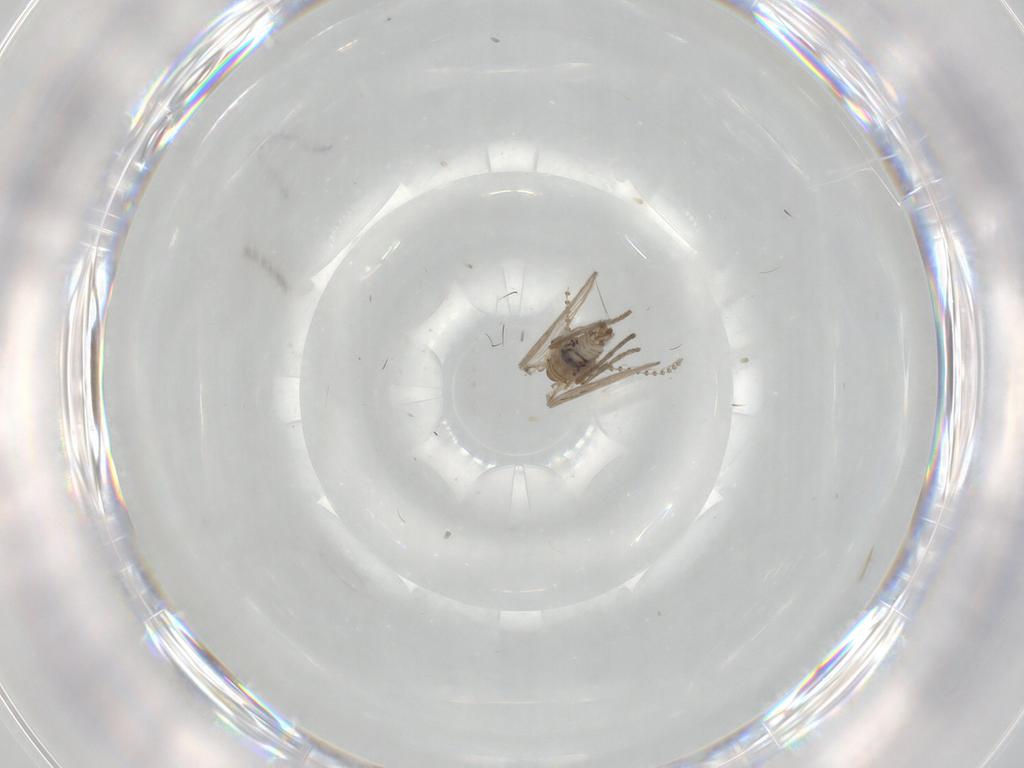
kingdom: Animalia
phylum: Arthropoda
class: Insecta
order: Diptera
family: Psychodidae
